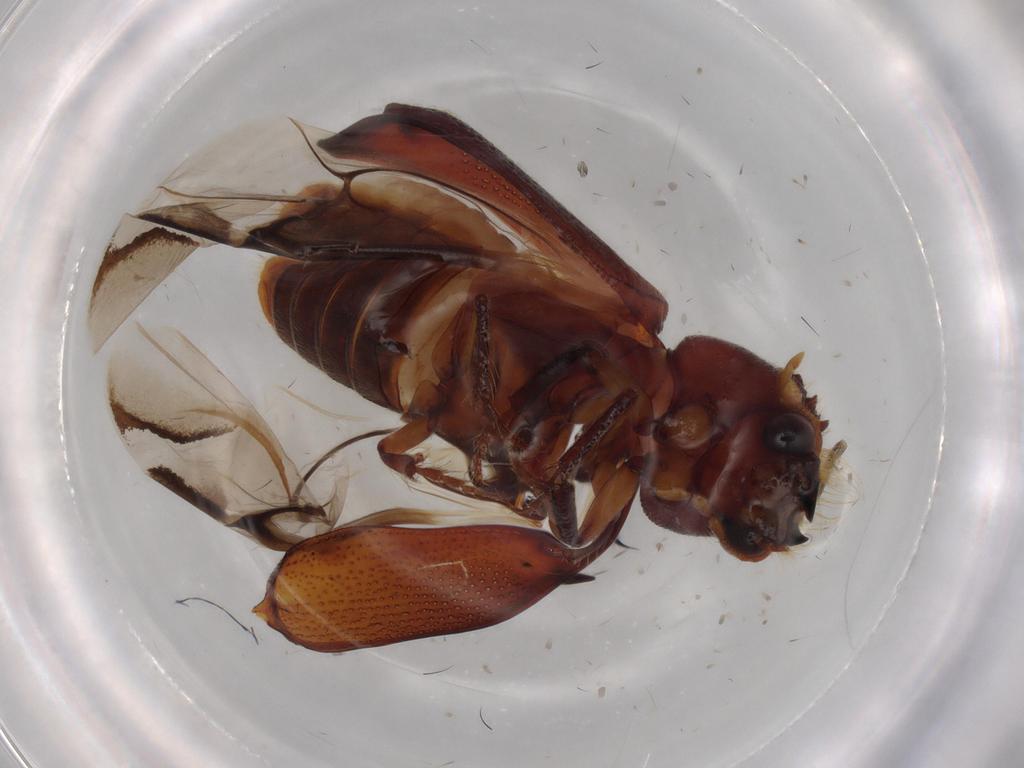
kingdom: Animalia
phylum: Arthropoda
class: Insecta
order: Coleoptera
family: Bostrichidae
